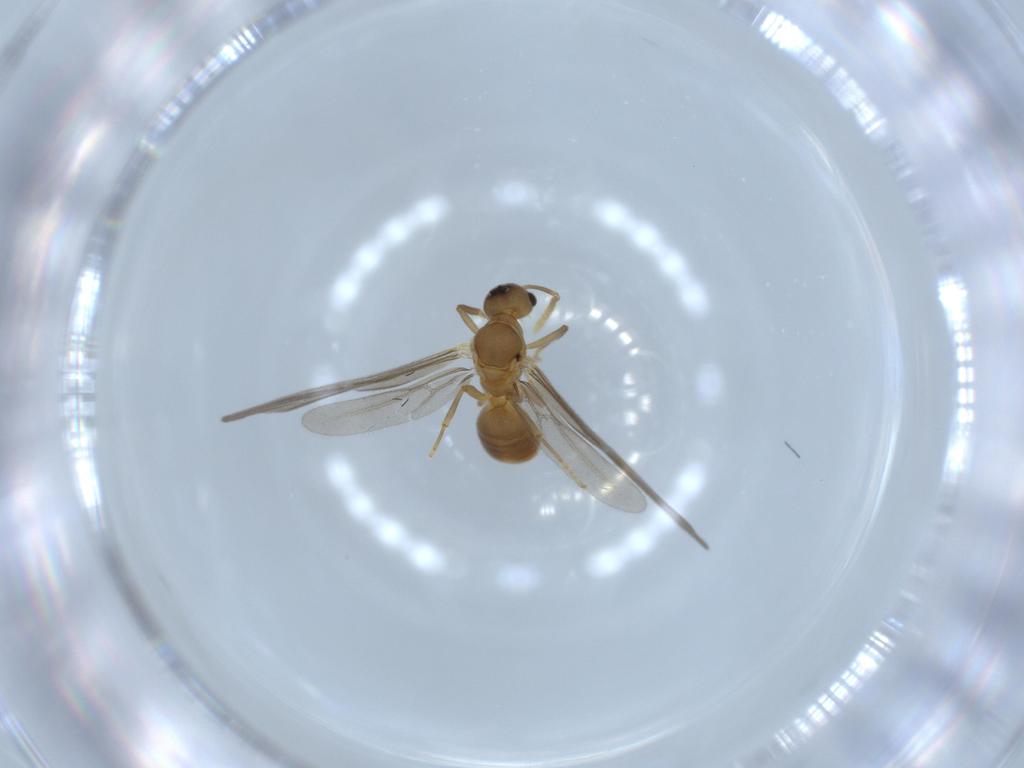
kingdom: Animalia
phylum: Arthropoda
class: Insecta
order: Hymenoptera
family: Formicidae
